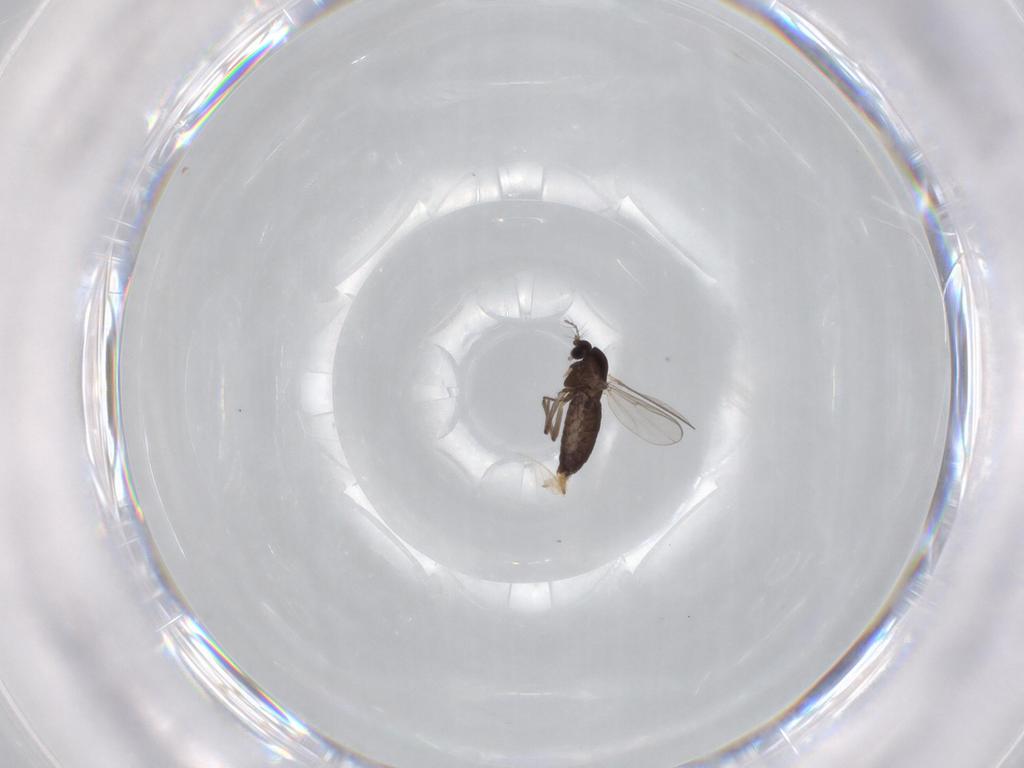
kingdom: Animalia
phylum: Arthropoda
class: Insecta
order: Diptera
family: Chironomidae
